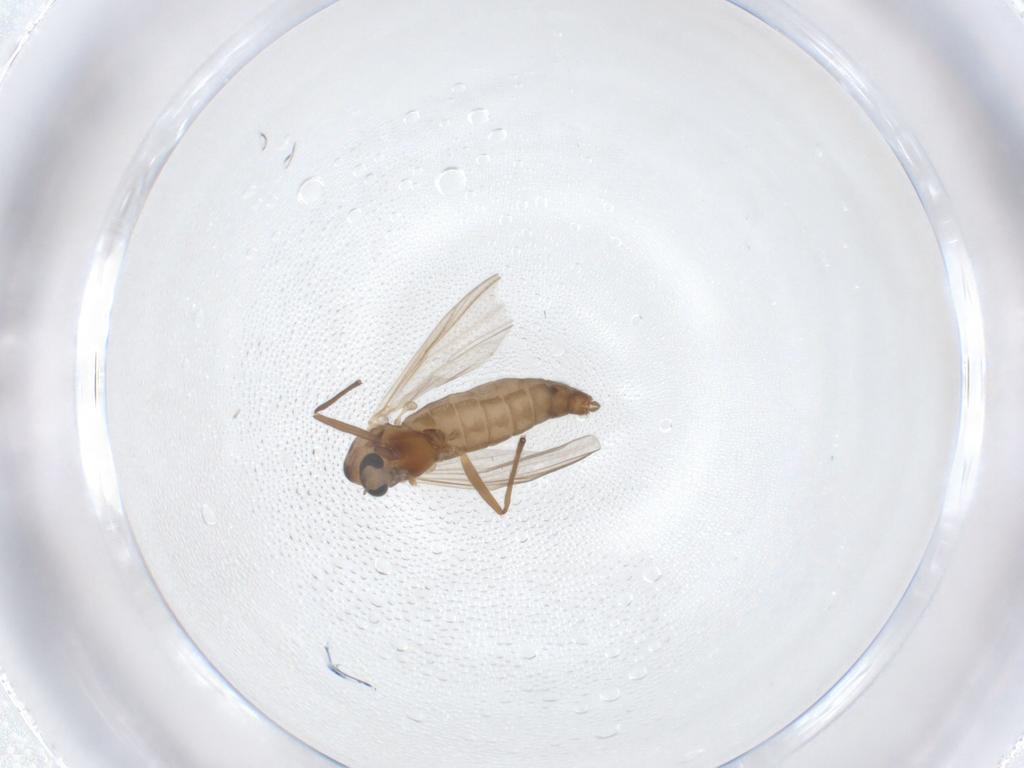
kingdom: Animalia
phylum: Arthropoda
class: Insecta
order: Diptera
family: Chironomidae
